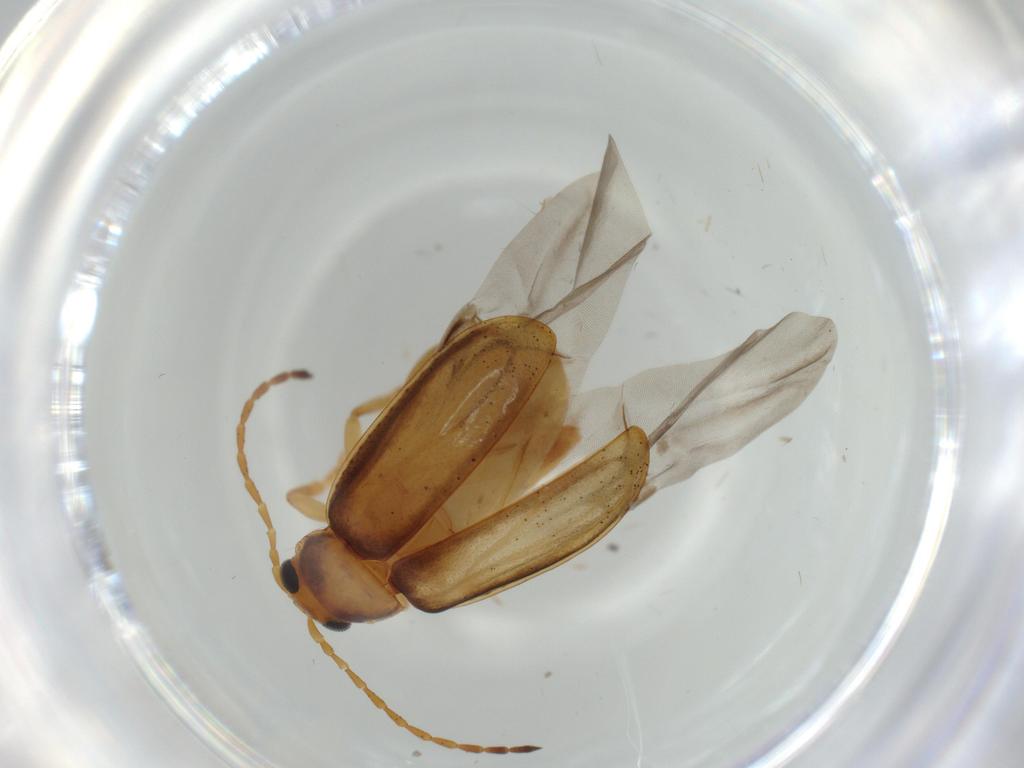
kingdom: Animalia
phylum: Arthropoda
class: Insecta
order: Coleoptera
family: Chrysomelidae
